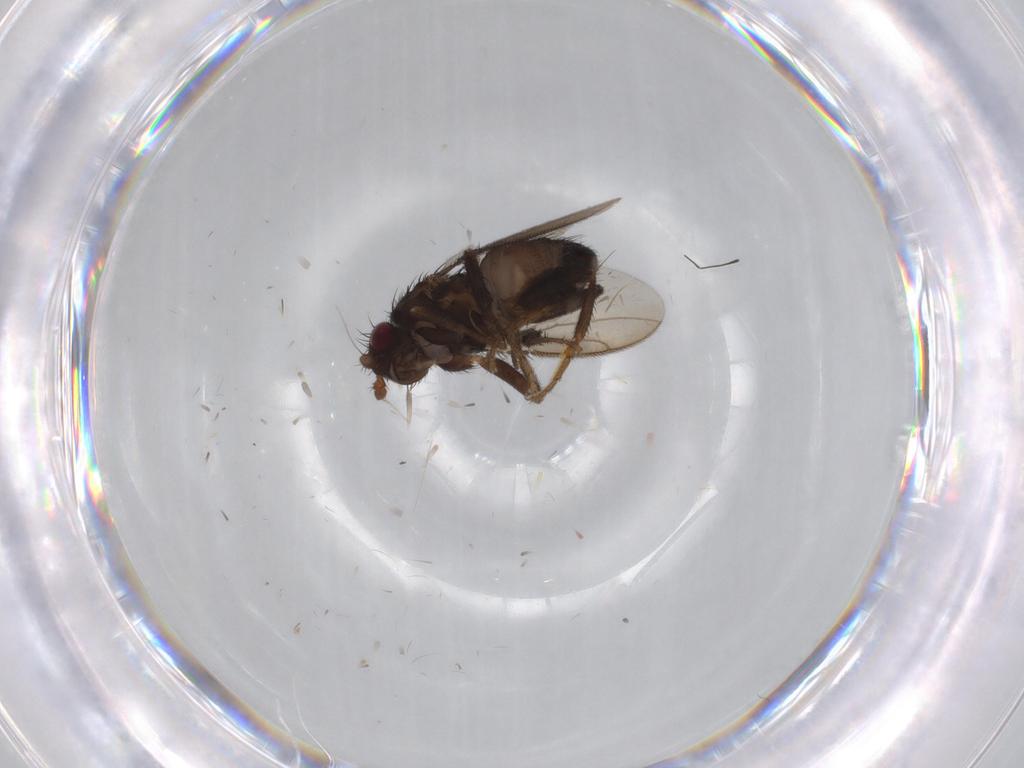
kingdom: Animalia
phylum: Arthropoda
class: Insecta
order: Diptera
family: Sphaeroceridae
